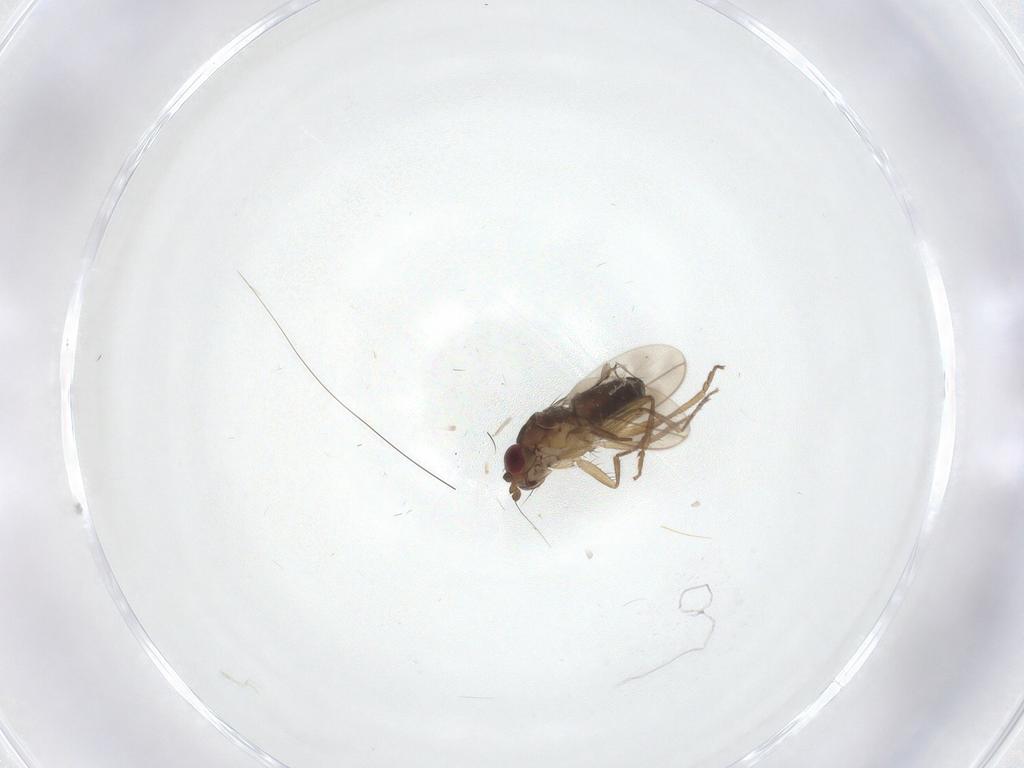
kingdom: Animalia
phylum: Arthropoda
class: Insecta
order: Diptera
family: Sphaeroceridae
